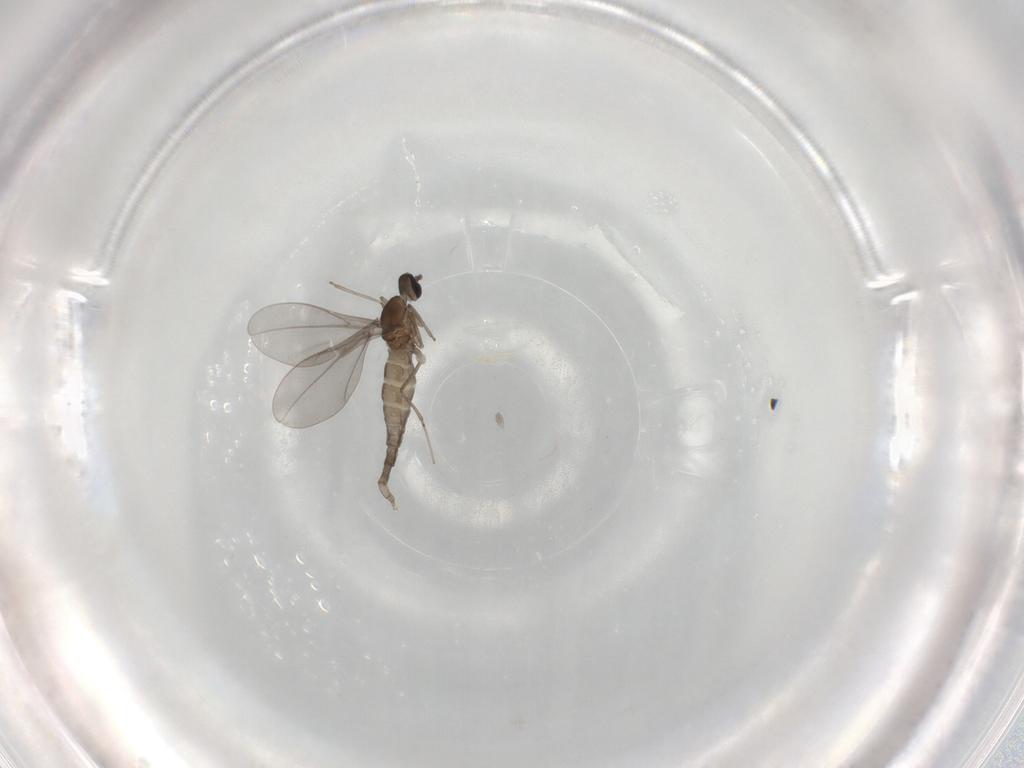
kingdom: Animalia
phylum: Arthropoda
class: Insecta
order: Diptera
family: Cecidomyiidae
